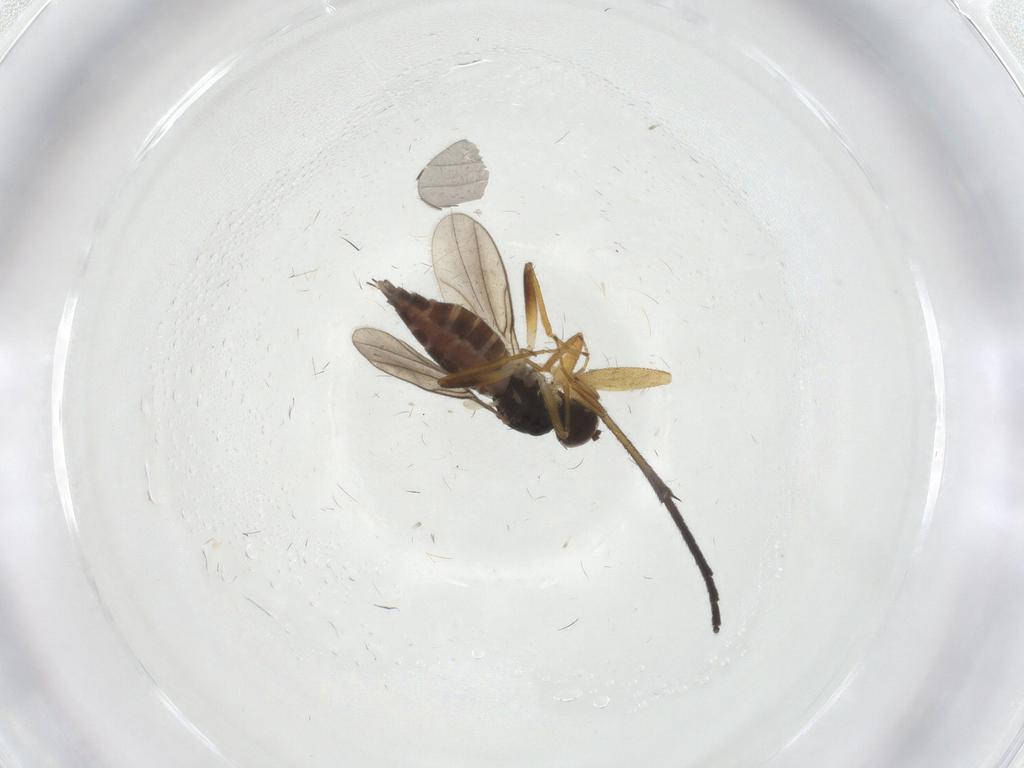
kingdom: Animalia
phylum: Arthropoda
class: Insecta
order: Diptera
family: Hybotidae
